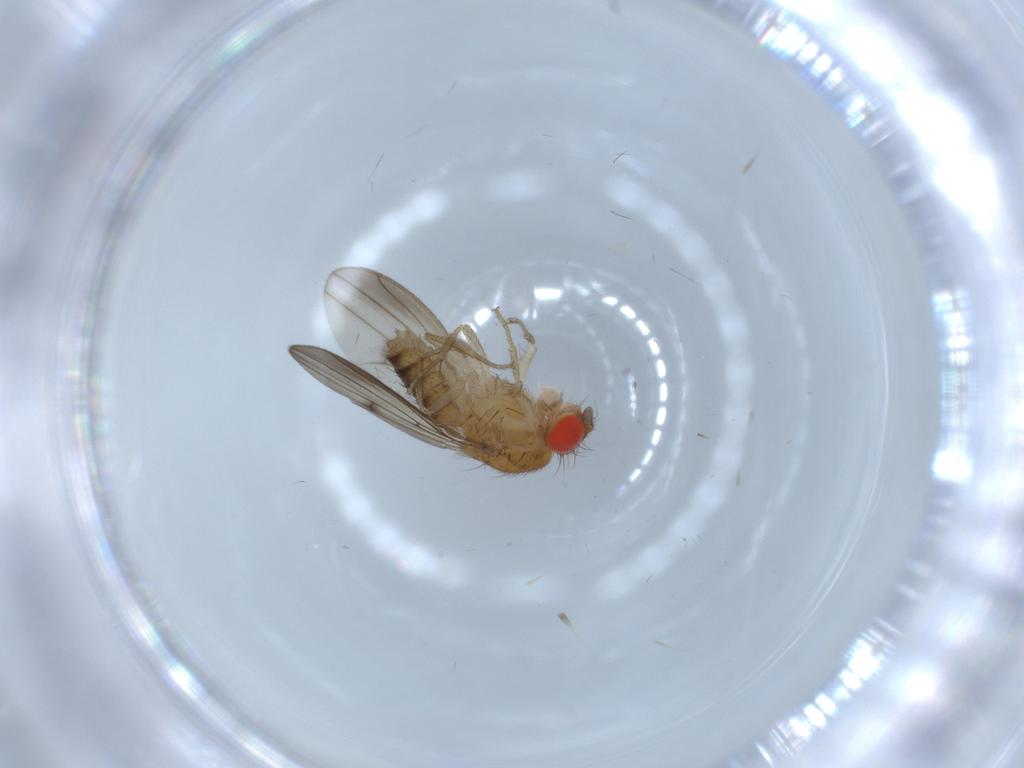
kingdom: Animalia
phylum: Arthropoda
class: Insecta
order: Diptera
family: Drosophilidae
